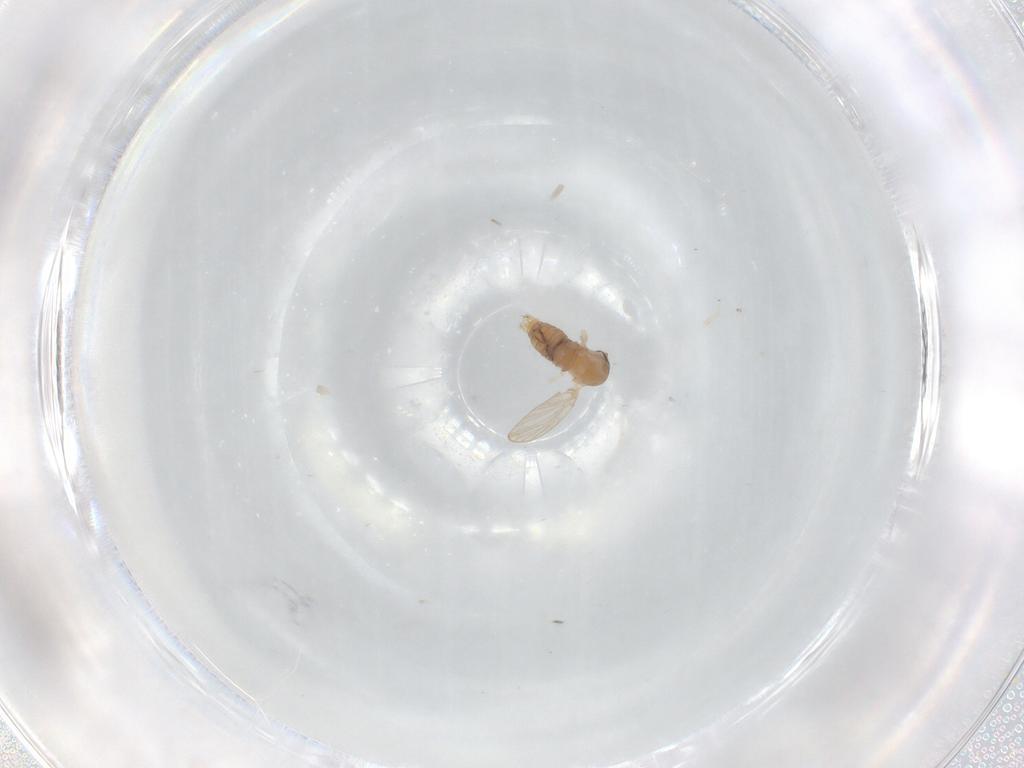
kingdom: Animalia
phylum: Arthropoda
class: Insecta
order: Diptera
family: Psychodidae
